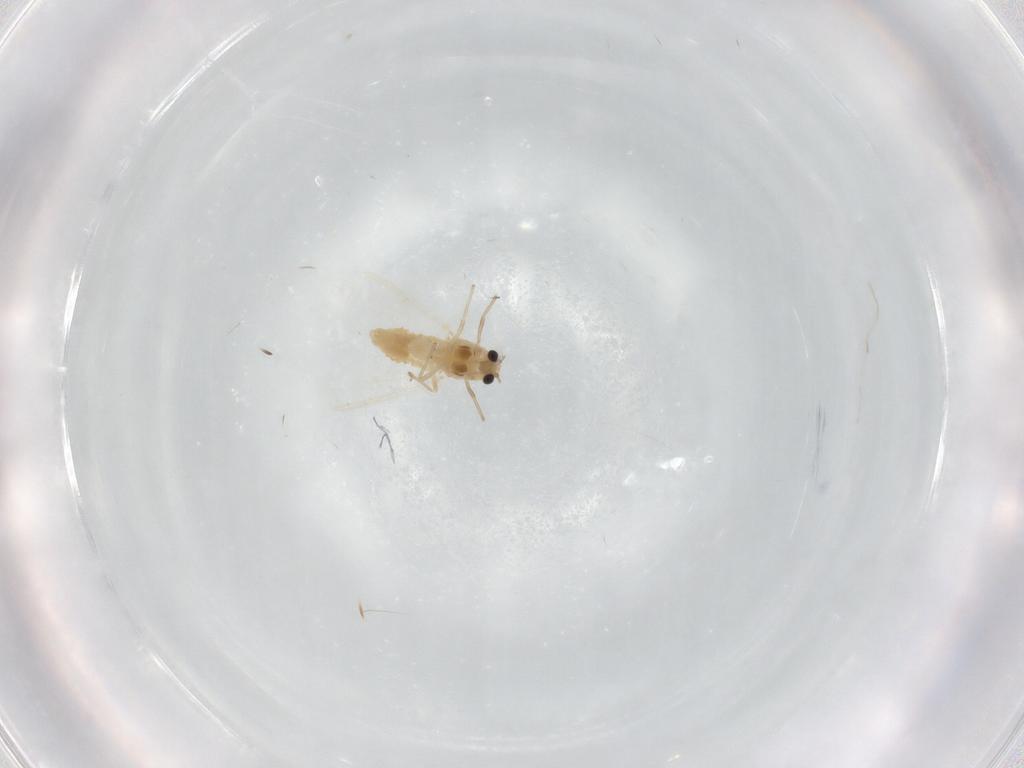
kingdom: Animalia
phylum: Arthropoda
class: Insecta
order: Diptera
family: Chironomidae
